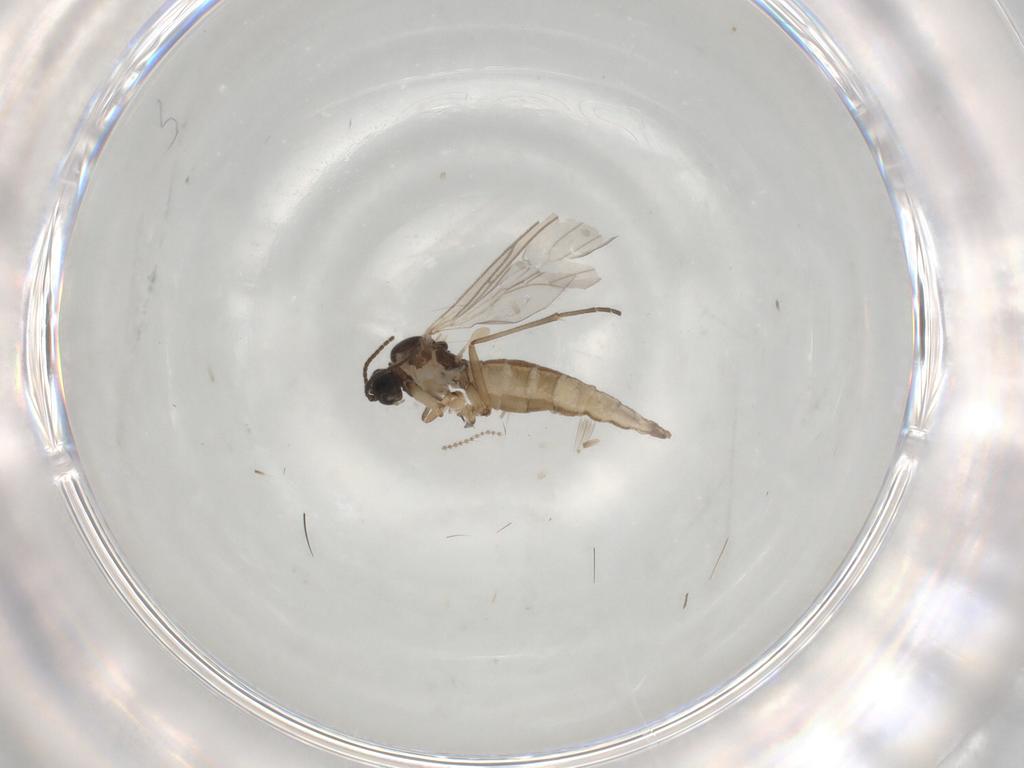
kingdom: Animalia
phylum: Arthropoda
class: Insecta
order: Diptera
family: Sciaridae
